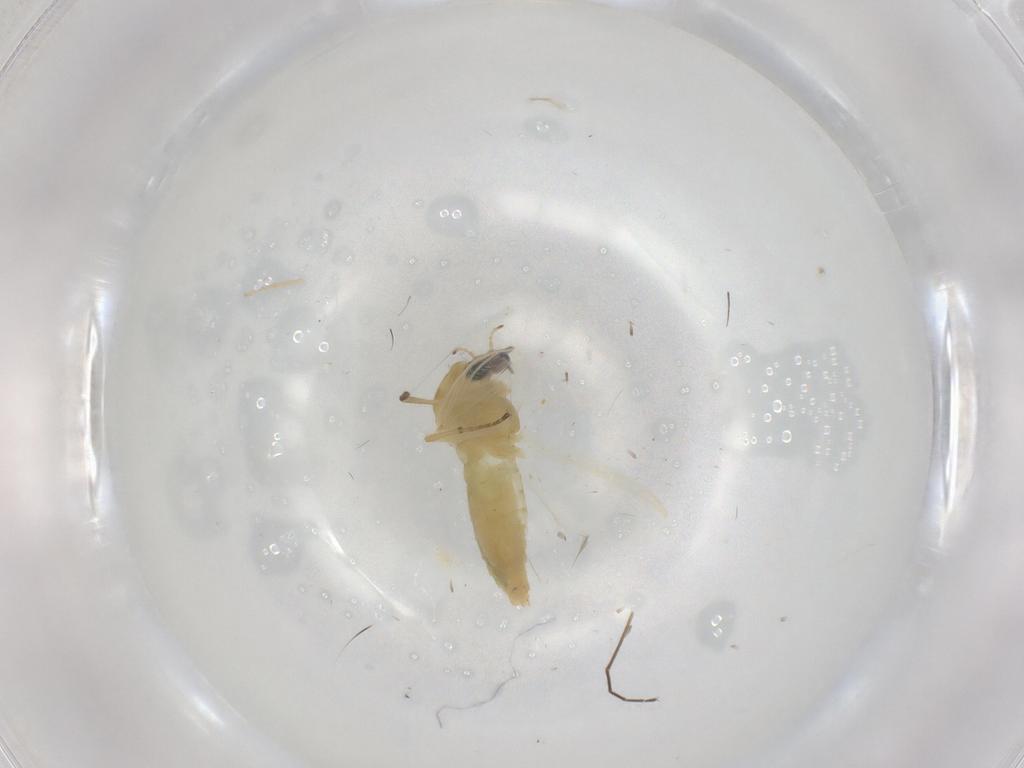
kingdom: Animalia
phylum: Arthropoda
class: Insecta
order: Diptera
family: Chironomidae
